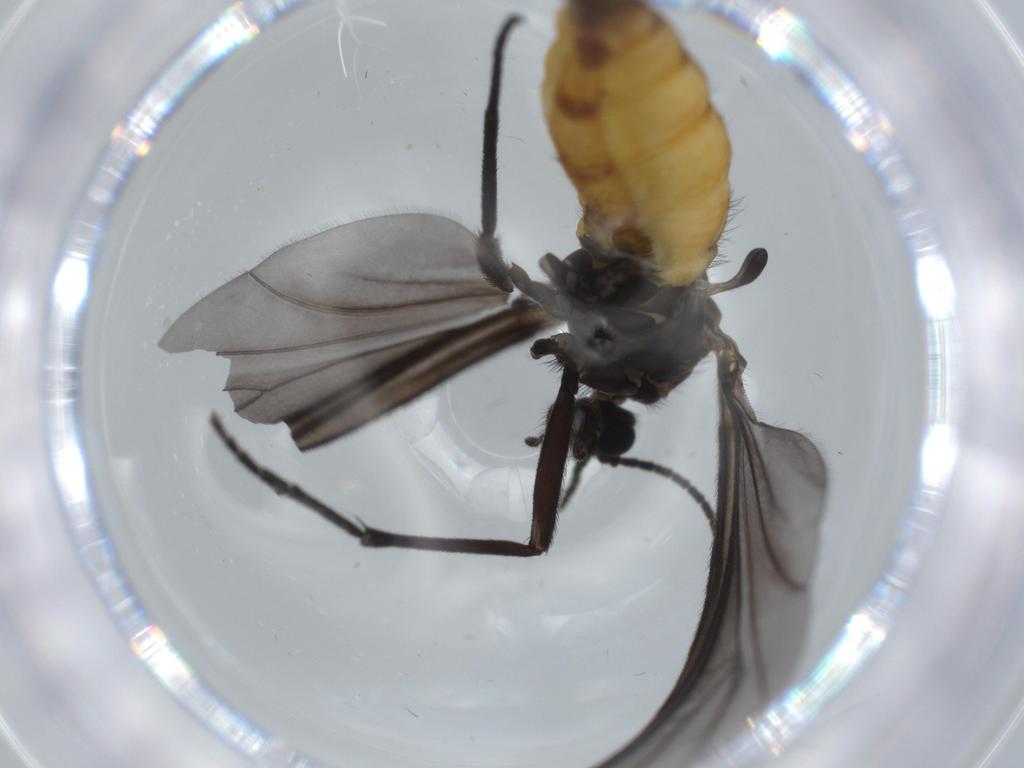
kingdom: Animalia
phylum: Arthropoda
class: Insecta
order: Diptera
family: Sciaridae
